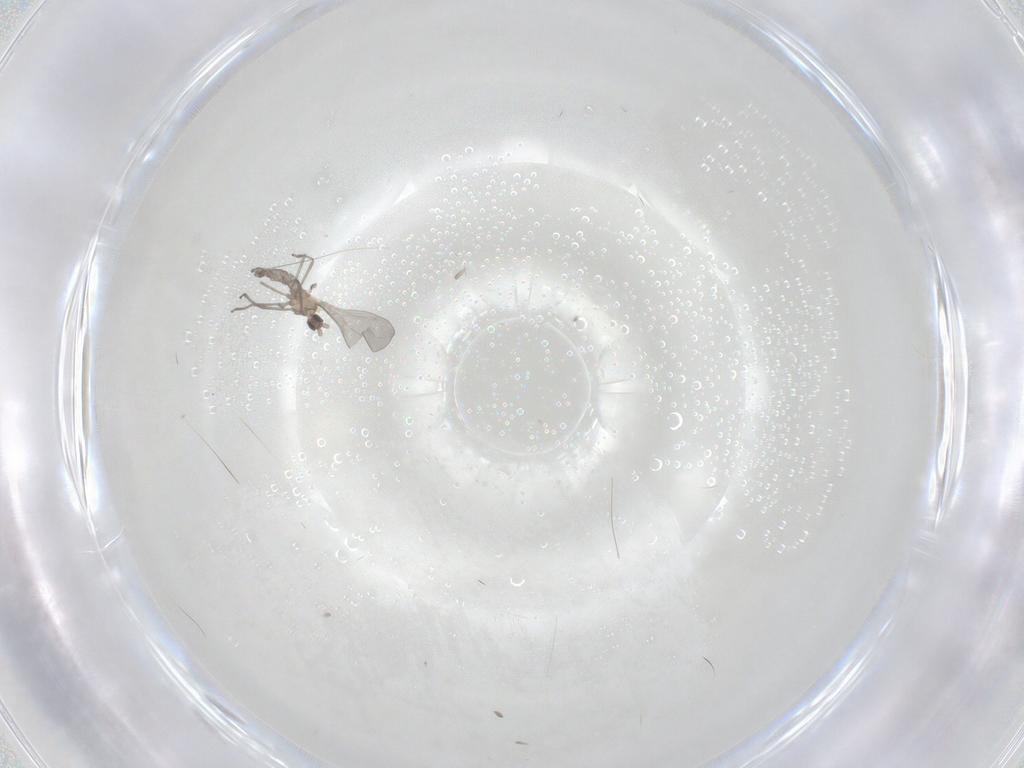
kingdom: Animalia
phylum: Arthropoda
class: Insecta
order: Diptera
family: Phoridae
